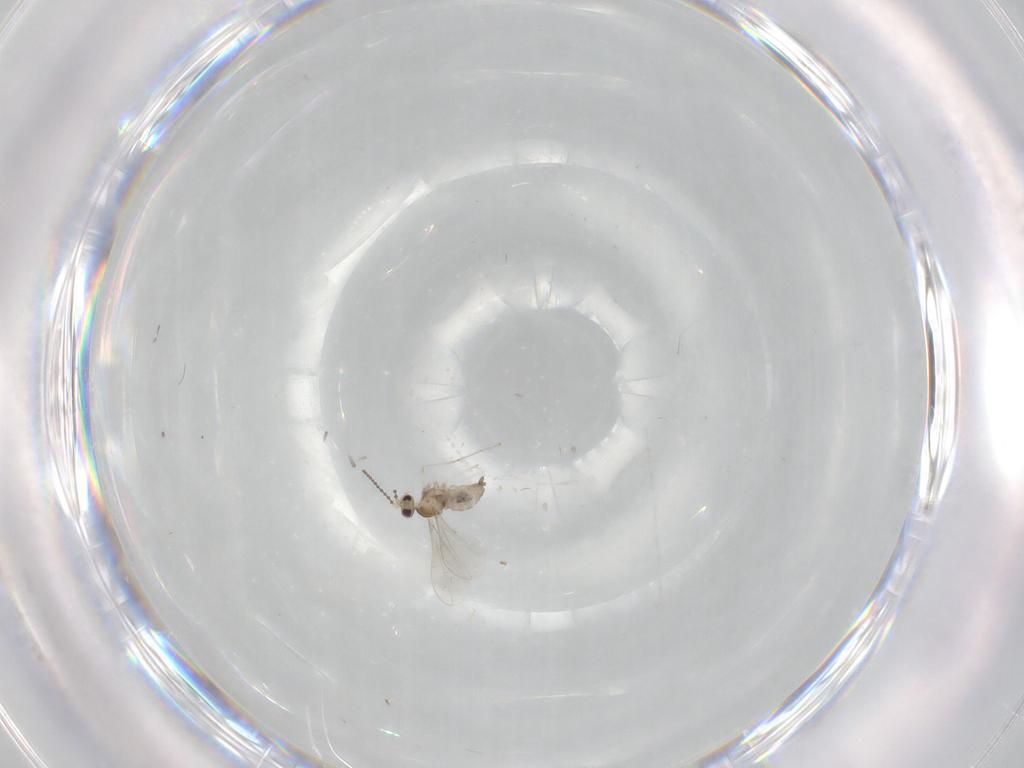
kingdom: Animalia
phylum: Arthropoda
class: Insecta
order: Diptera
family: Cecidomyiidae
